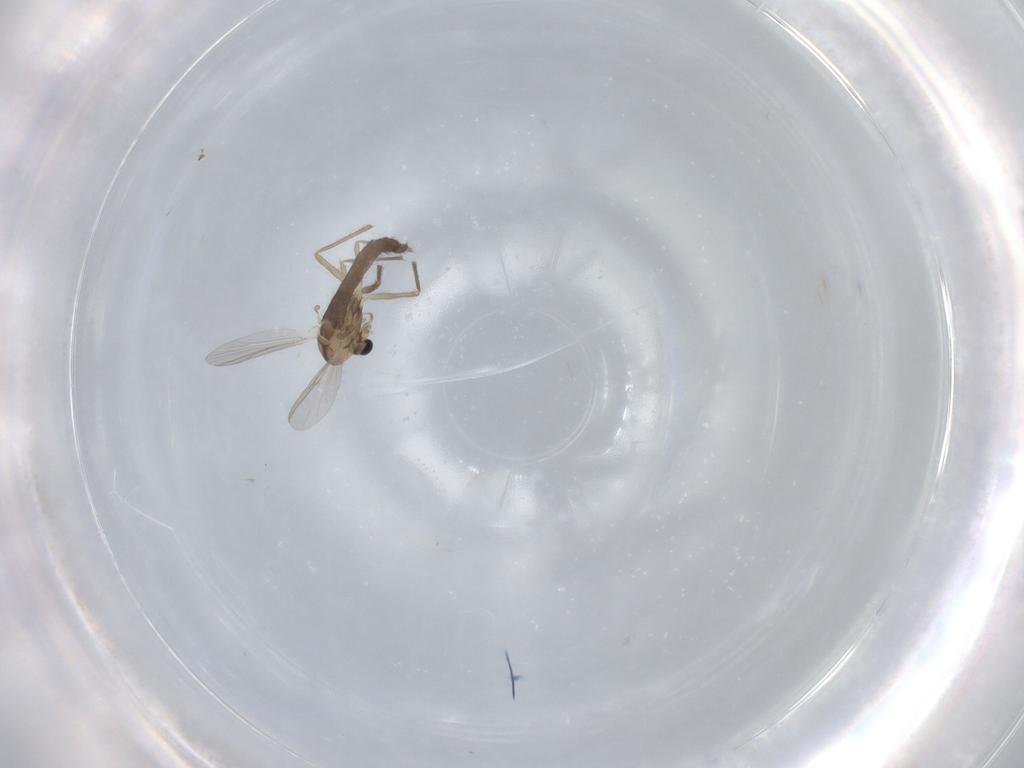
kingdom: Animalia
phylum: Arthropoda
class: Insecta
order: Diptera
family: Chironomidae
